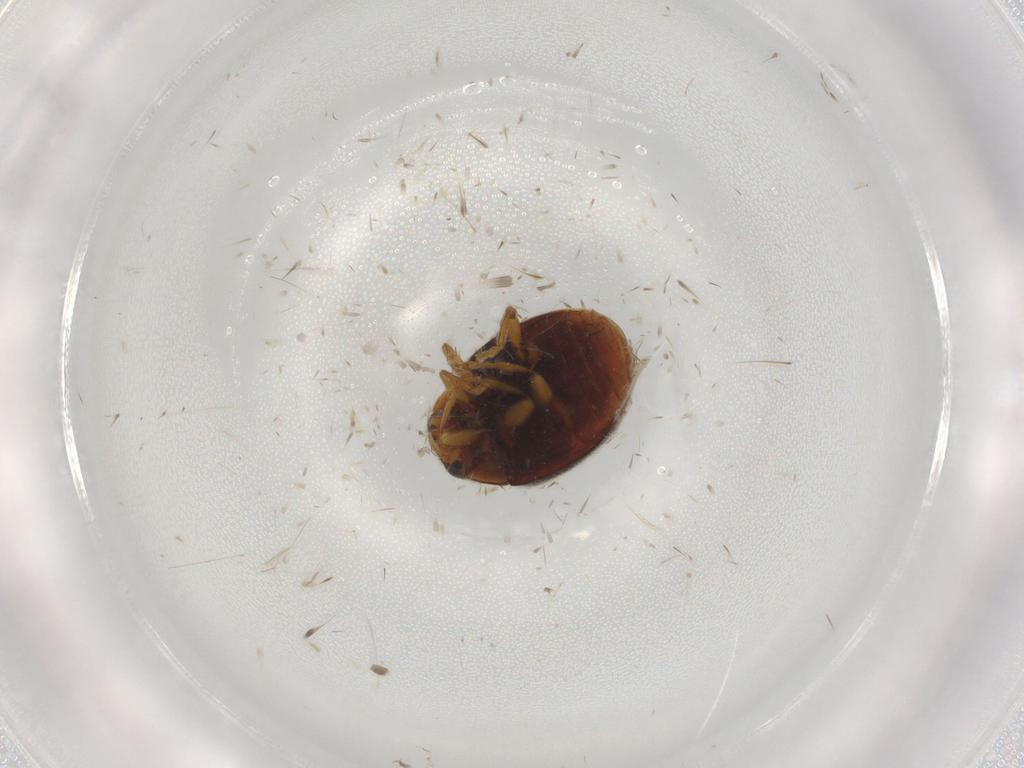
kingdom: Animalia
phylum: Arthropoda
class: Insecta
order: Coleoptera
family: Coccinellidae
